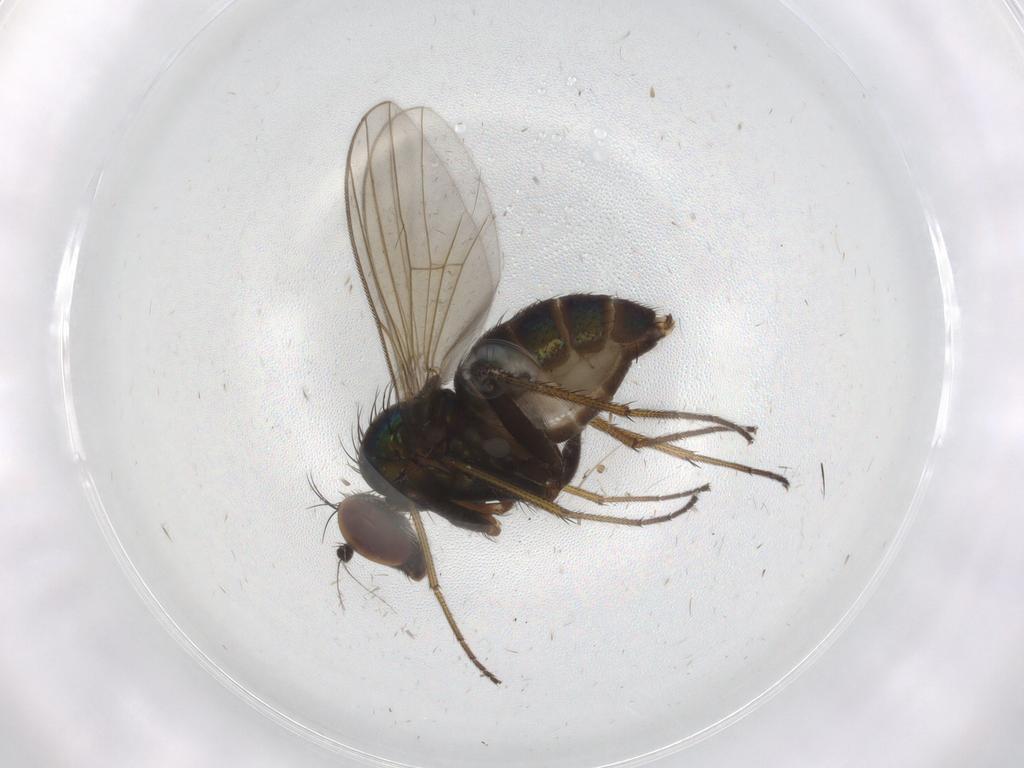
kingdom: Animalia
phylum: Arthropoda
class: Insecta
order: Diptera
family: Dolichopodidae
